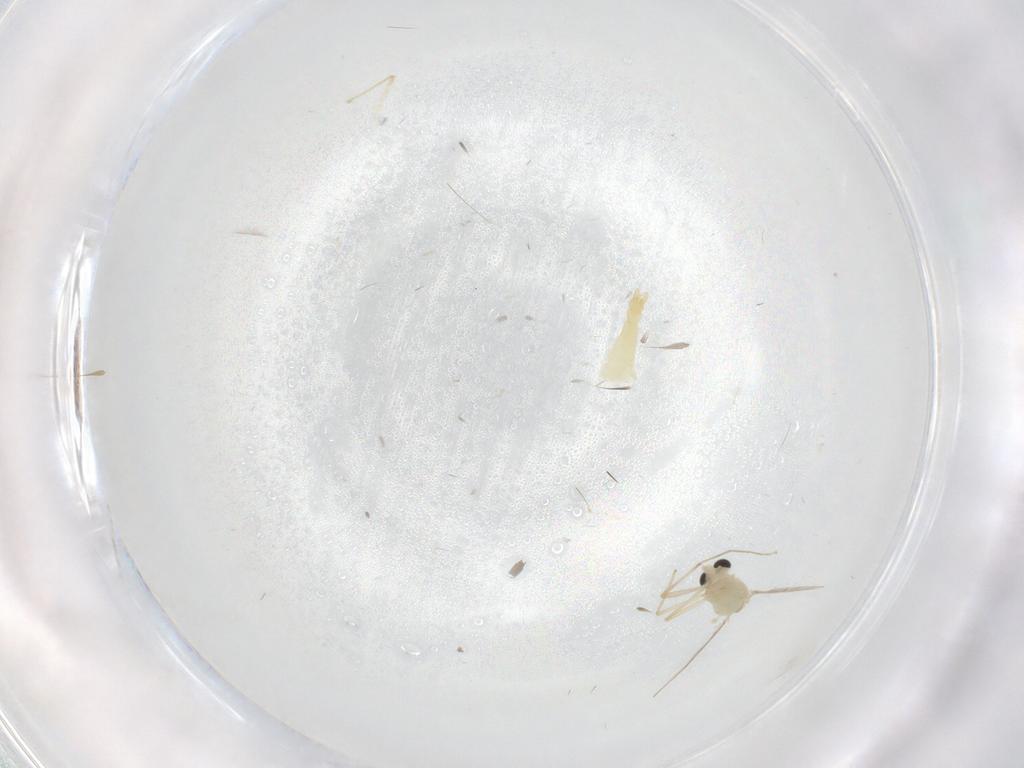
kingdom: Animalia
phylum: Arthropoda
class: Insecta
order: Diptera
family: Chironomidae
